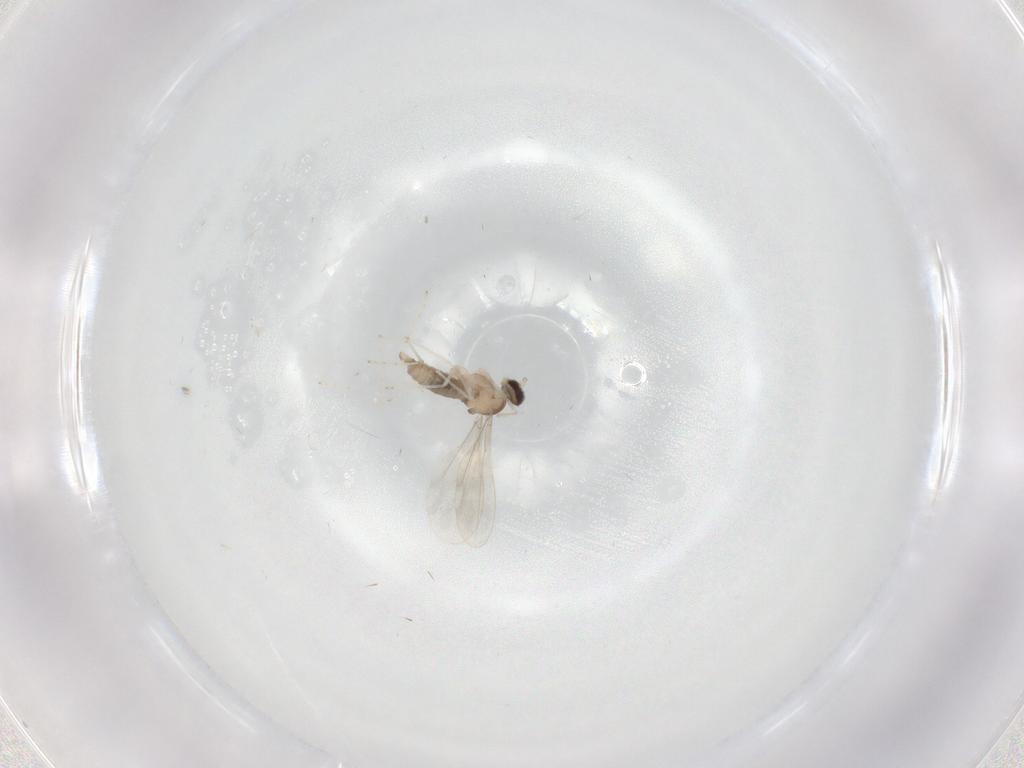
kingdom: Animalia
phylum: Arthropoda
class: Insecta
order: Diptera
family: Cecidomyiidae
